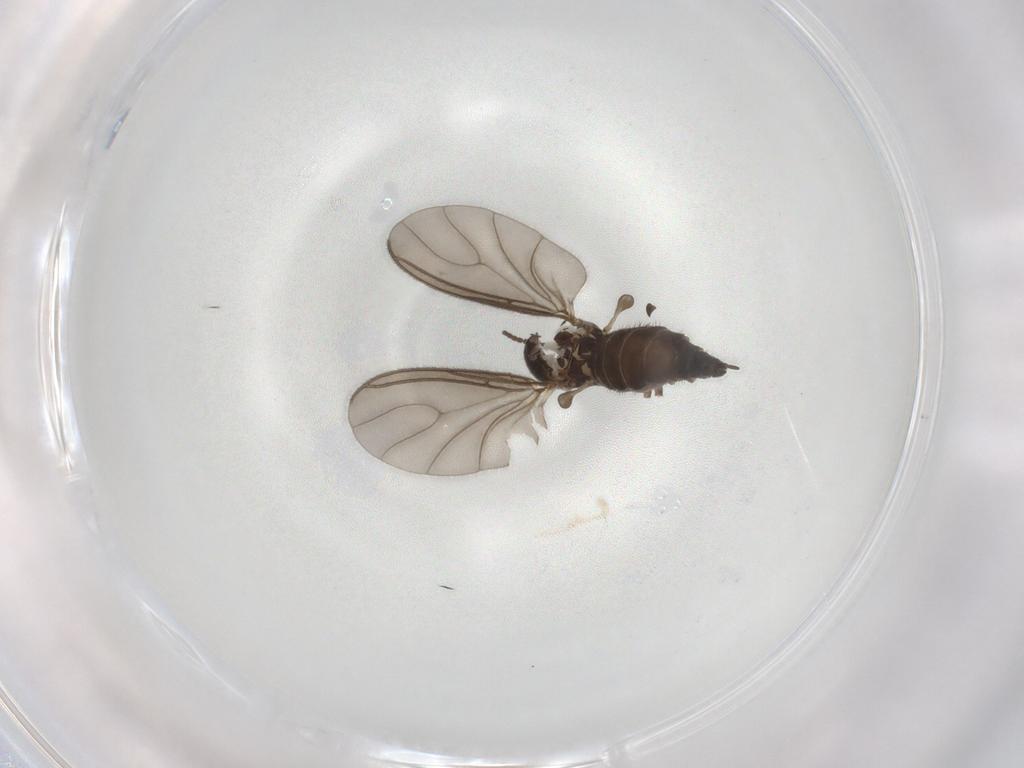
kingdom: Animalia
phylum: Arthropoda
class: Insecta
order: Diptera
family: Sciaridae
